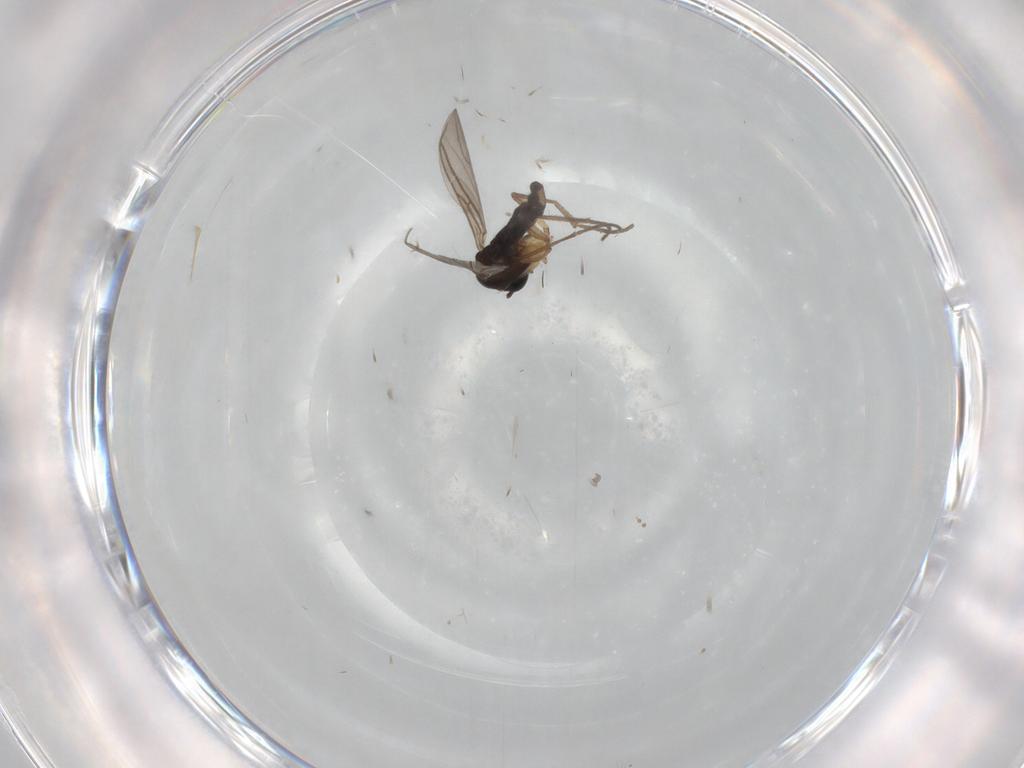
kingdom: Animalia
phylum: Arthropoda
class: Insecta
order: Diptera
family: Sciaridae
